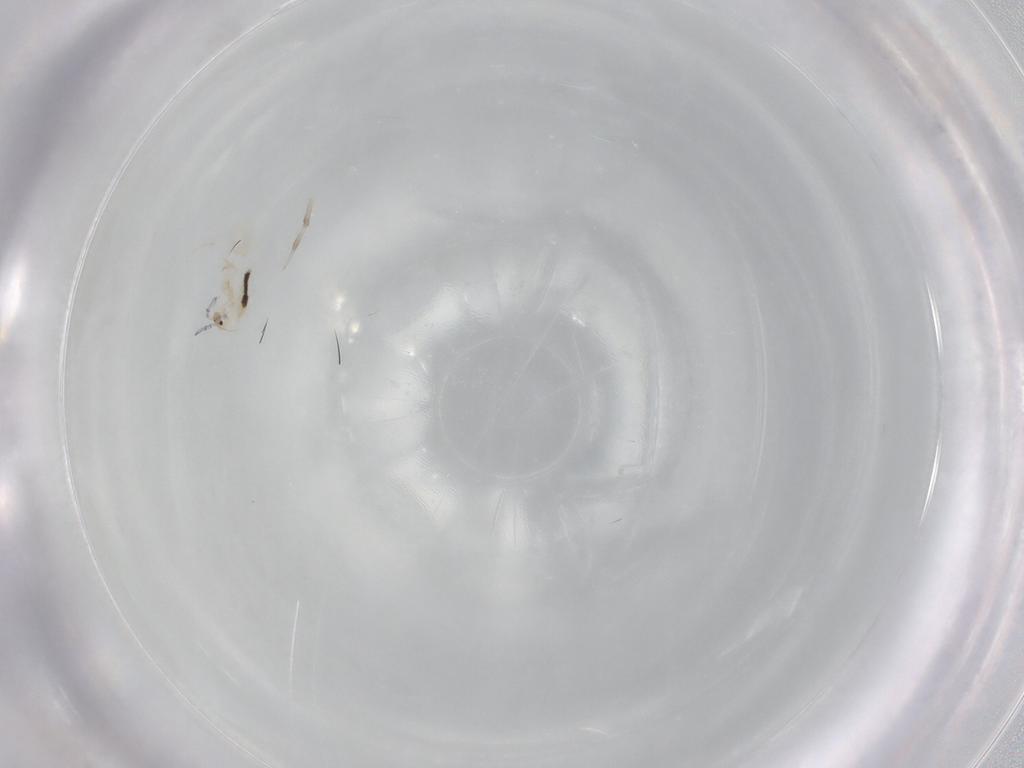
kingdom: Animalia
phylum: Arthropoda
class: Collembola
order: Entomobryomorpha
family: Entomobryidae
